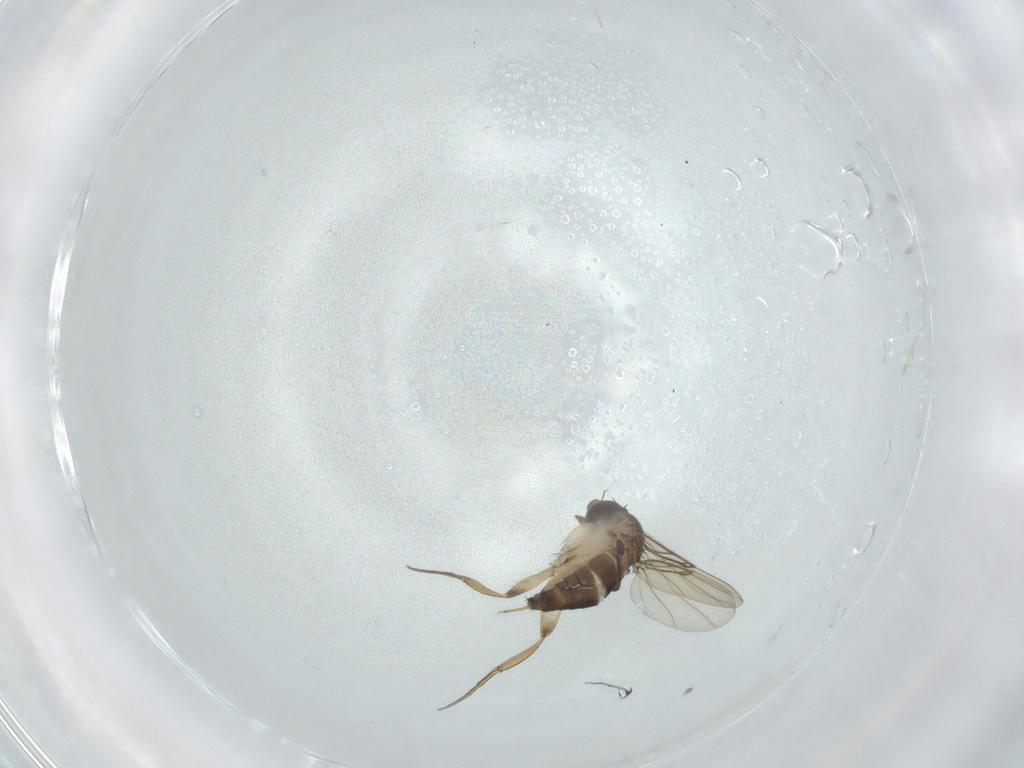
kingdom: Animalia
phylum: Arthropoda
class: Insecta
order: Diptera
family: Phoridae
